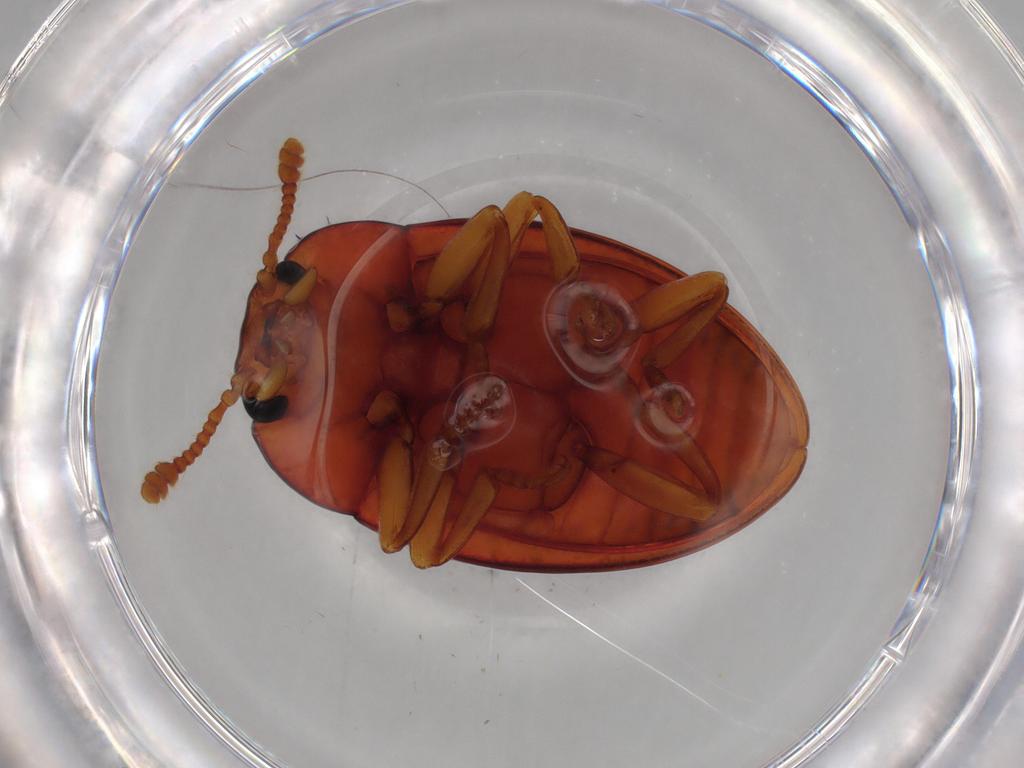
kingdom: Animalia
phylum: Arthropoda
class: Insecta
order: Coleoptera
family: Erotylidae
